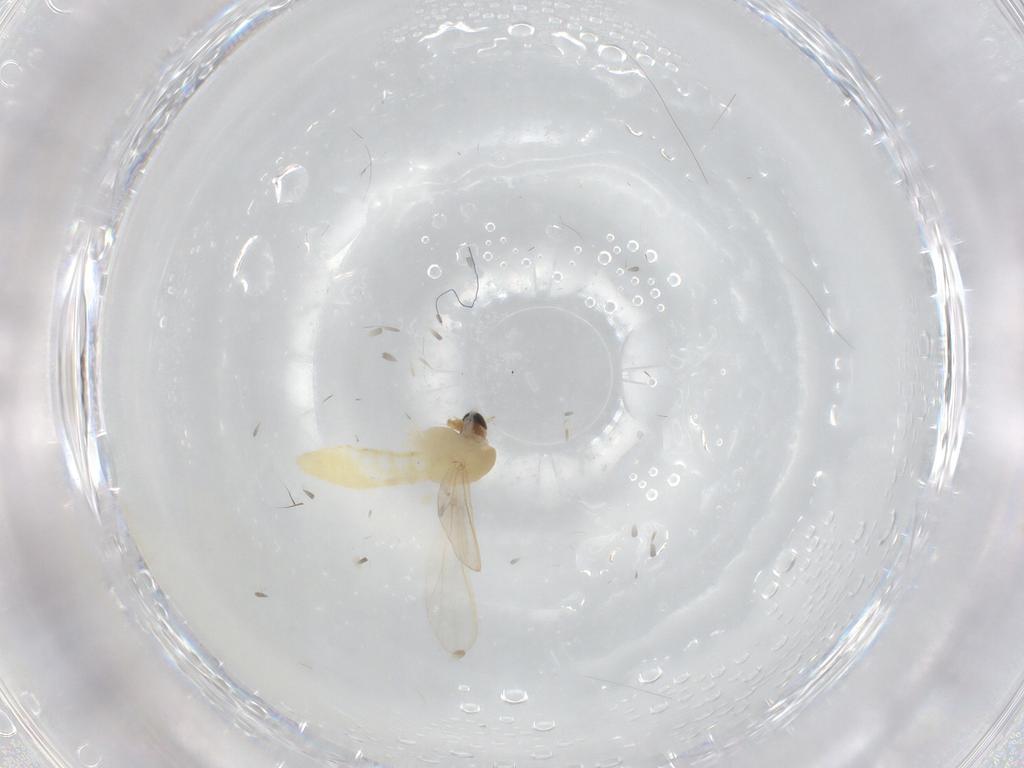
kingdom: Animalia
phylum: Arthropoda
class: Insecta
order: Diptera
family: Chironomidae
